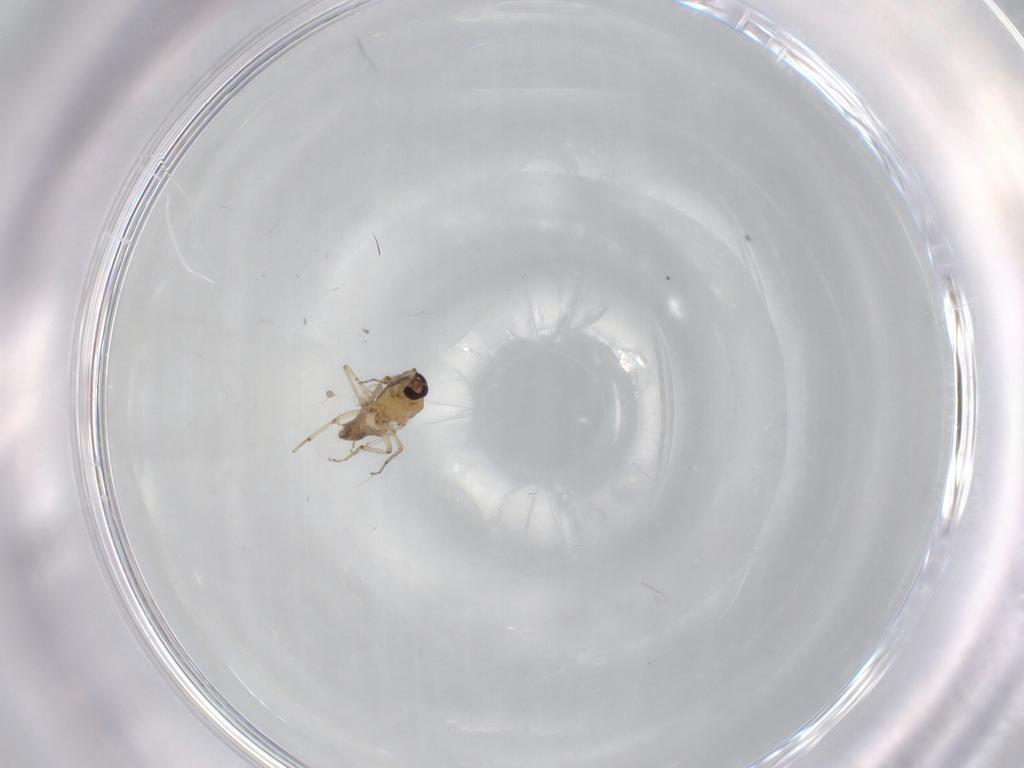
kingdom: Animalia
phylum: Arthropoda
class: Insecta
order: Diptera
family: Ceratopogonidae
